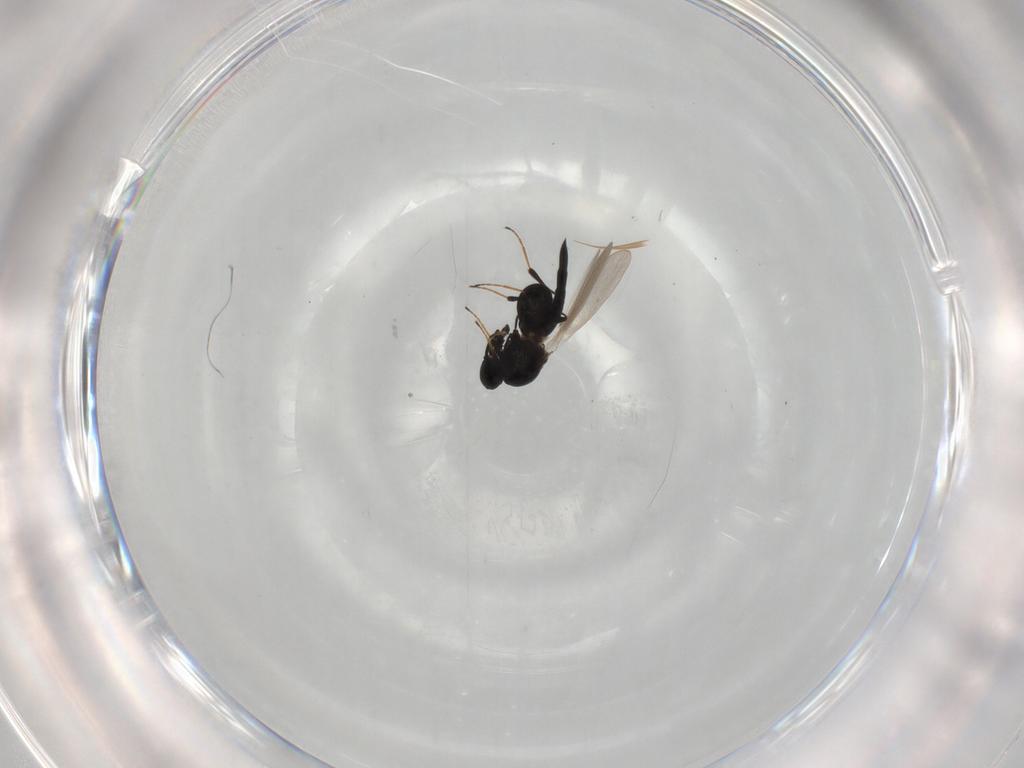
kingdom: Animalia
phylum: Arthropoda
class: Insecta
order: Hymenoptera
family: Platygastridae
